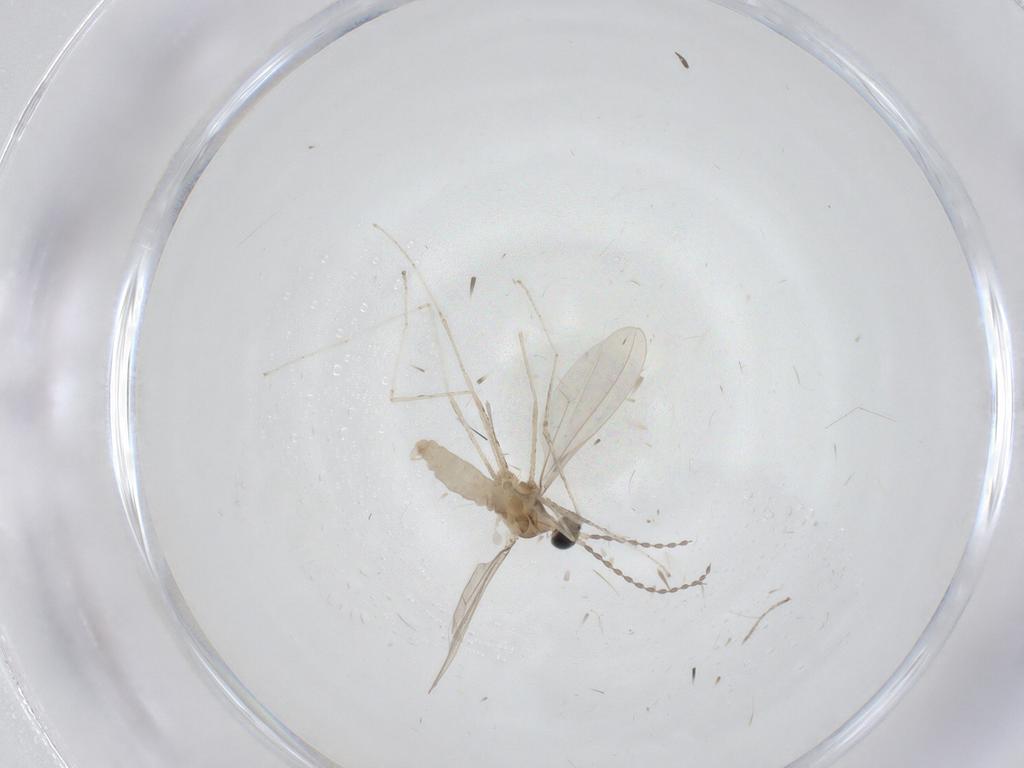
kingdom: Animalia
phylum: Arthropoda
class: Insecta
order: Diptera
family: Cecidomyiidae
